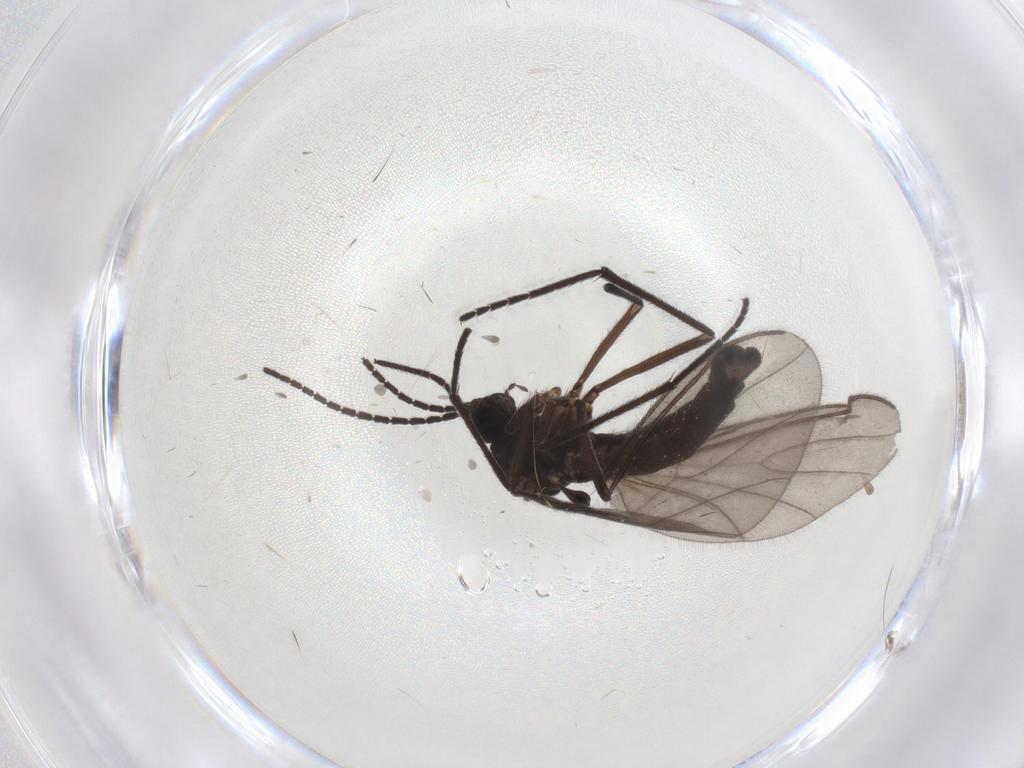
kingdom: Animalia
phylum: Arthropoda
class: Insecta
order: Diptera
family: Sciaridae
